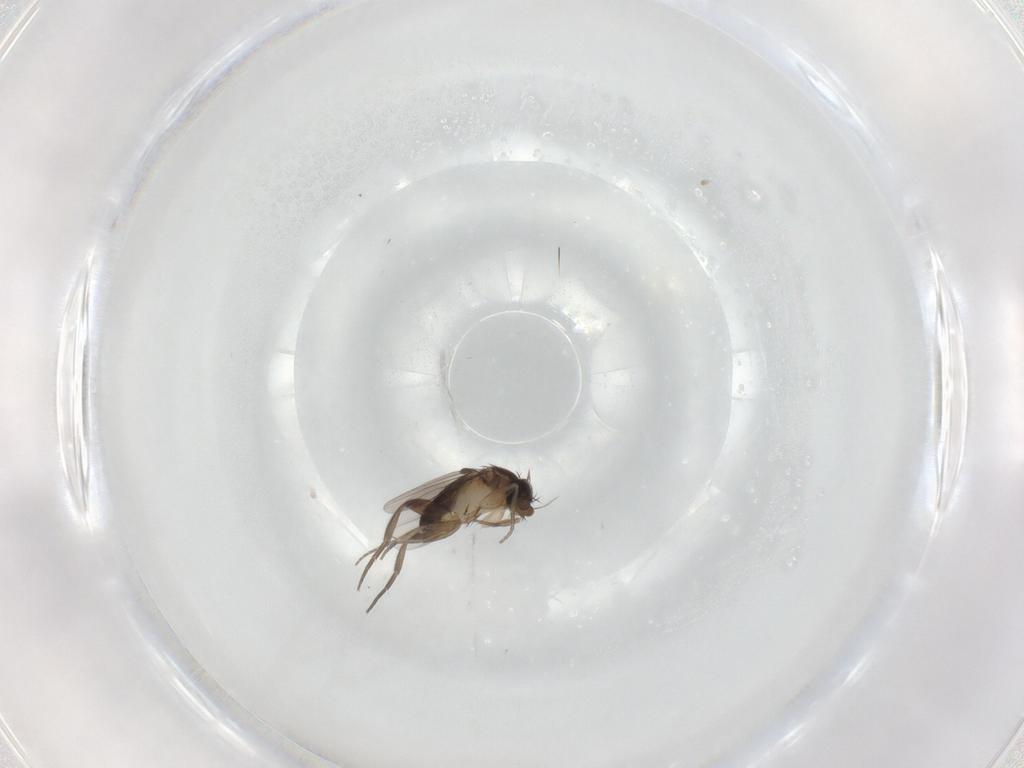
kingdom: Animalia
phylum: Arthropoda
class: Insecta
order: Diptera
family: Phoridae
